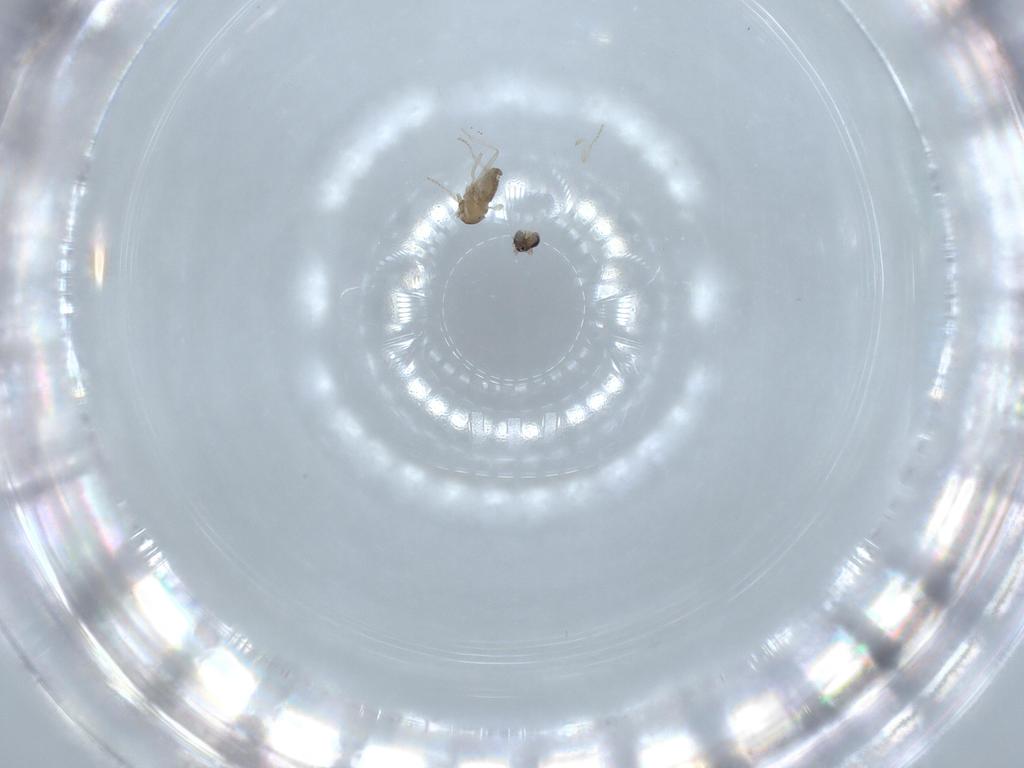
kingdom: Animalia
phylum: Arthropoda
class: Insecta
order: Diptera
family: Cecidomyiidae
